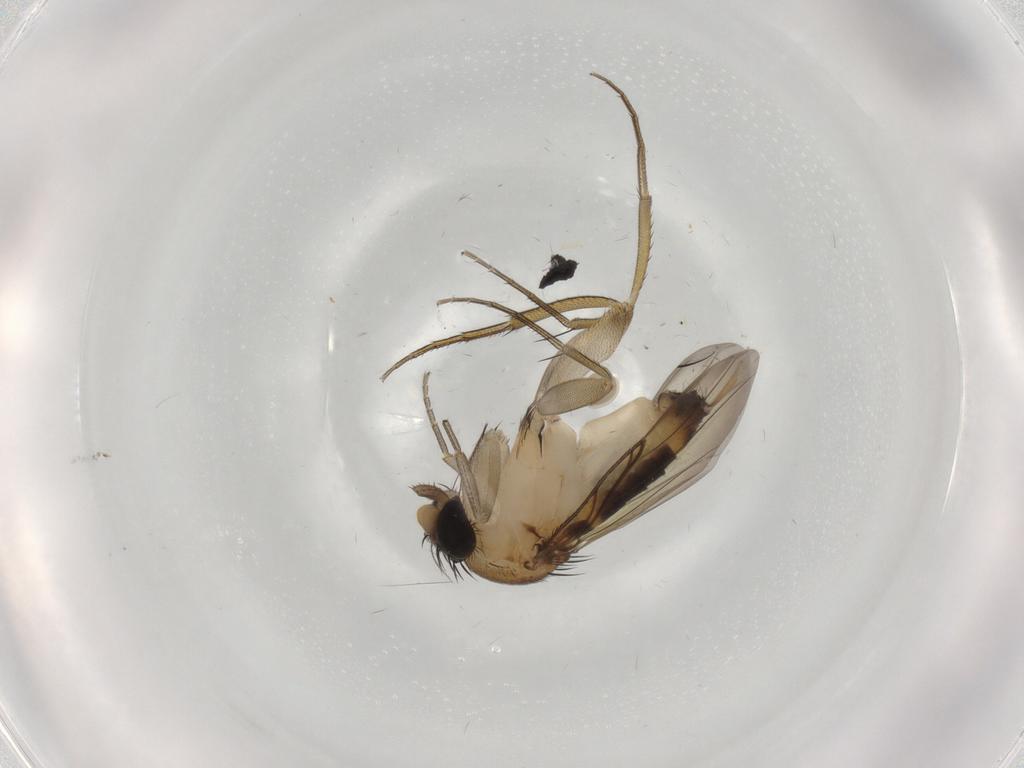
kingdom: Animalia
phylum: Arthropoda
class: Insecta
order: Diptera
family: Phoridae
